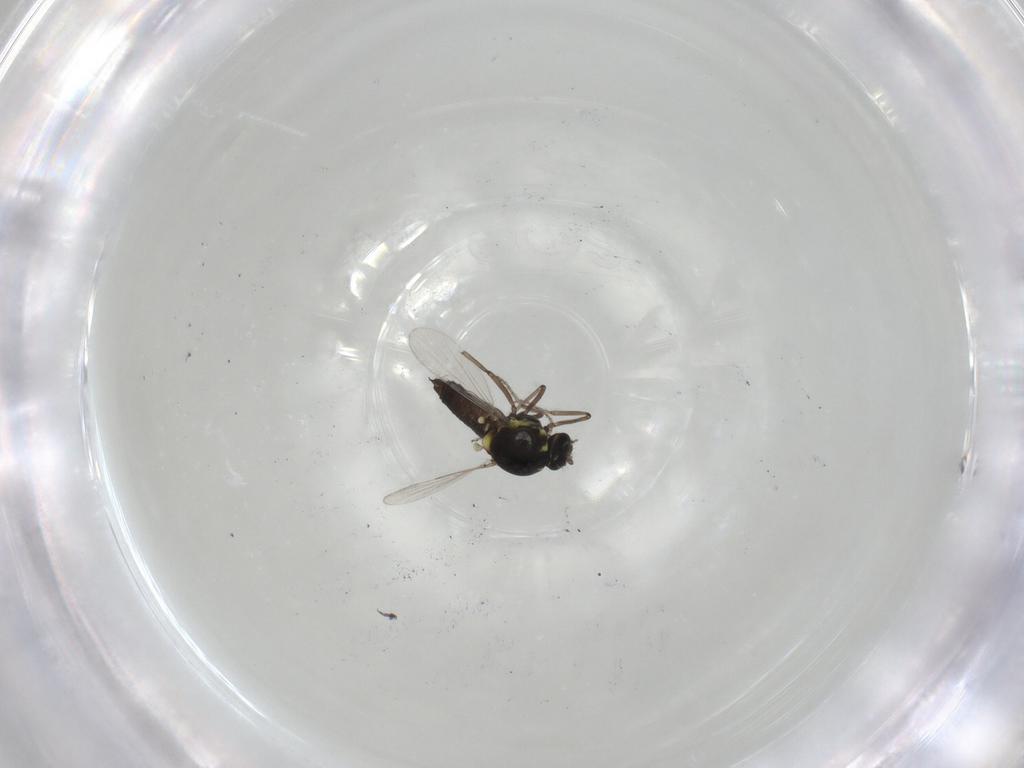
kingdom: Animalia
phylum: Arthropoda
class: Insecta
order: Diptera
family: Ceratopogonidae
